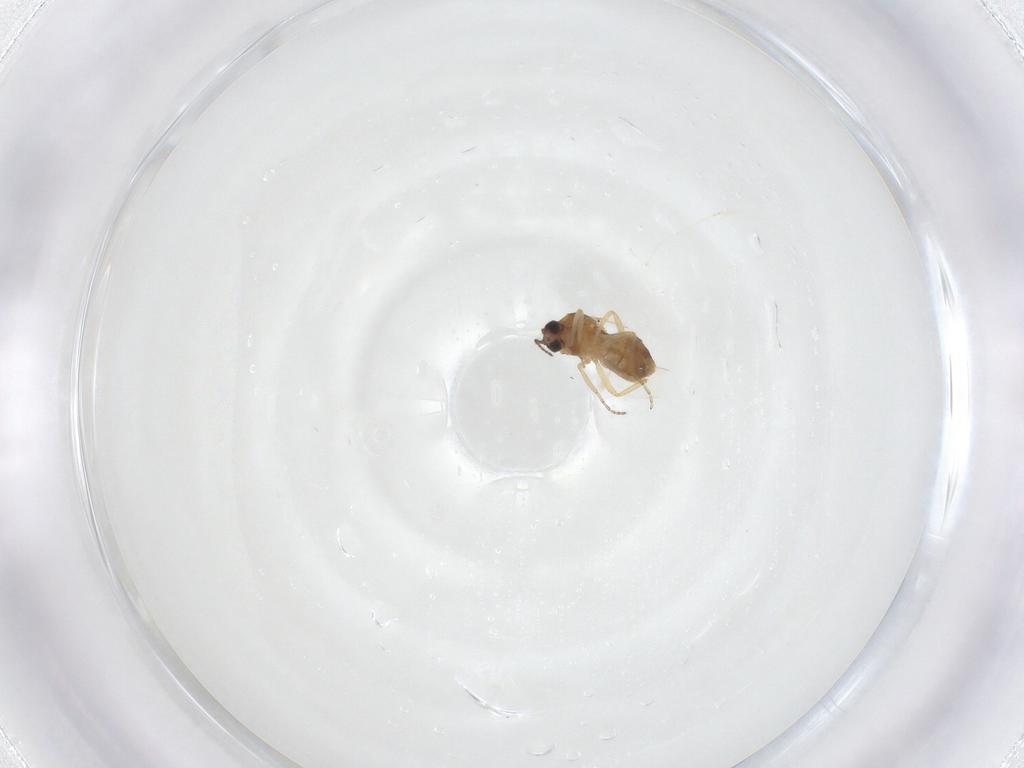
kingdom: Animalia
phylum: Arthropoda
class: Insecta
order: Diptera
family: Ceratopogonidae
